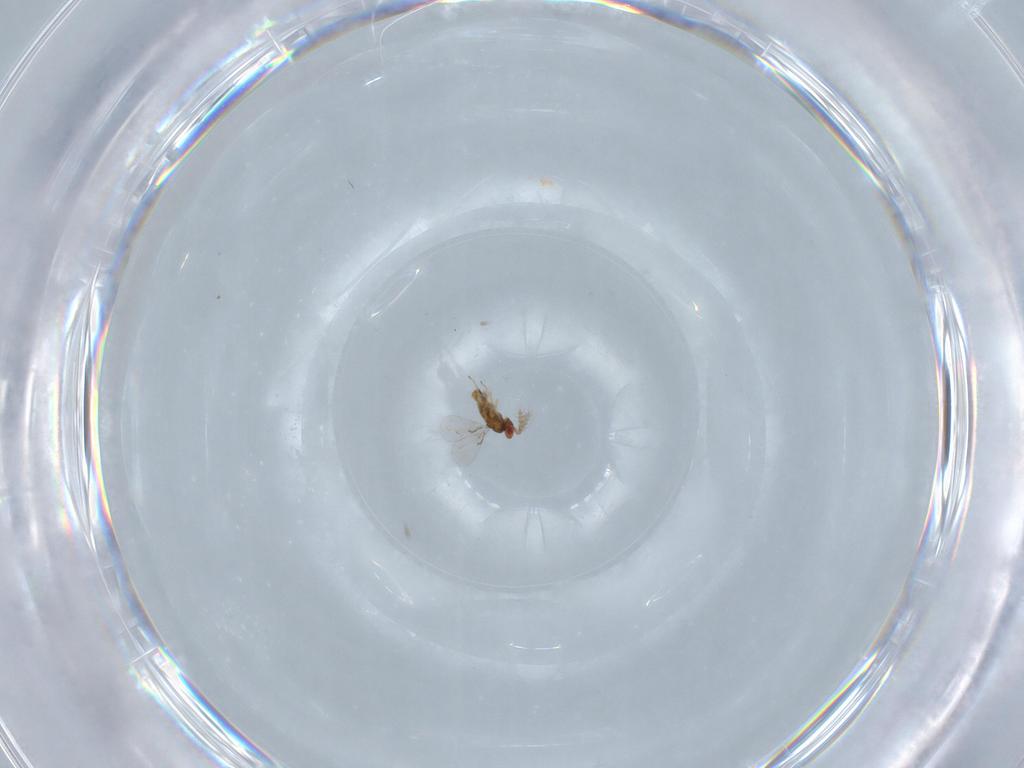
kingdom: Animalia
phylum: Arthropoda
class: Insecta
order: Hymenoptera
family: Trichogrammatidae
